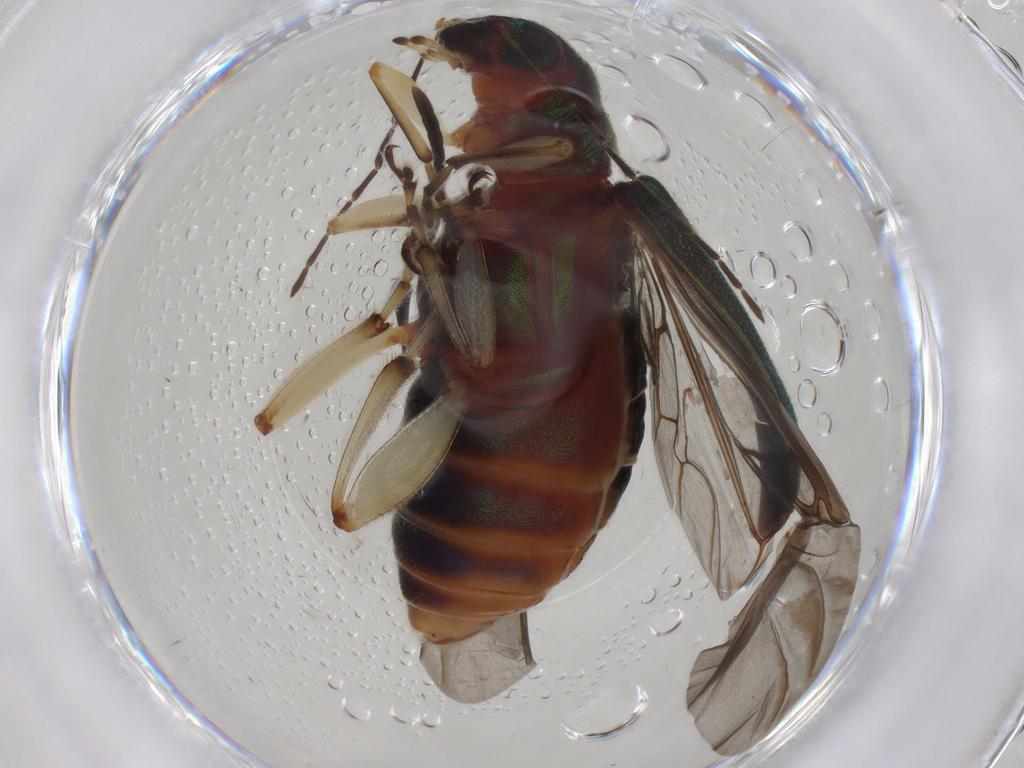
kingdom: Animalia
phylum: Arthropoda
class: Insecta
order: Coleoptera
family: Chrysomelidae
